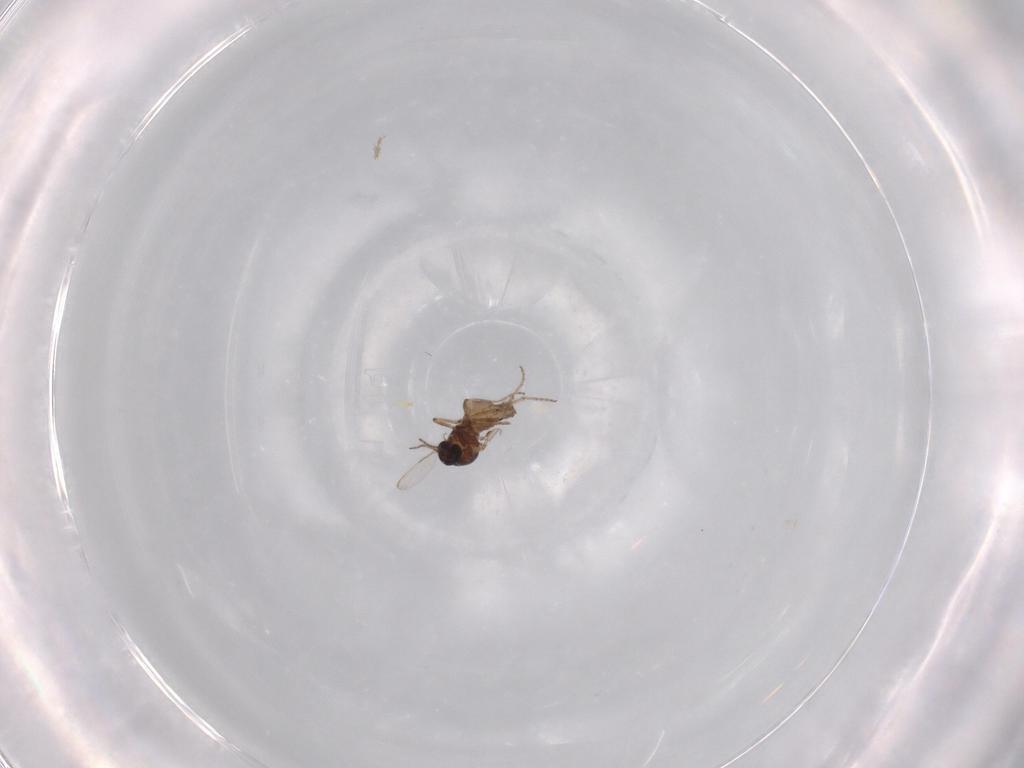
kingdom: Animalia
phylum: Arthropoda
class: Insecta
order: Diptera
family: Ceratopogonidae
